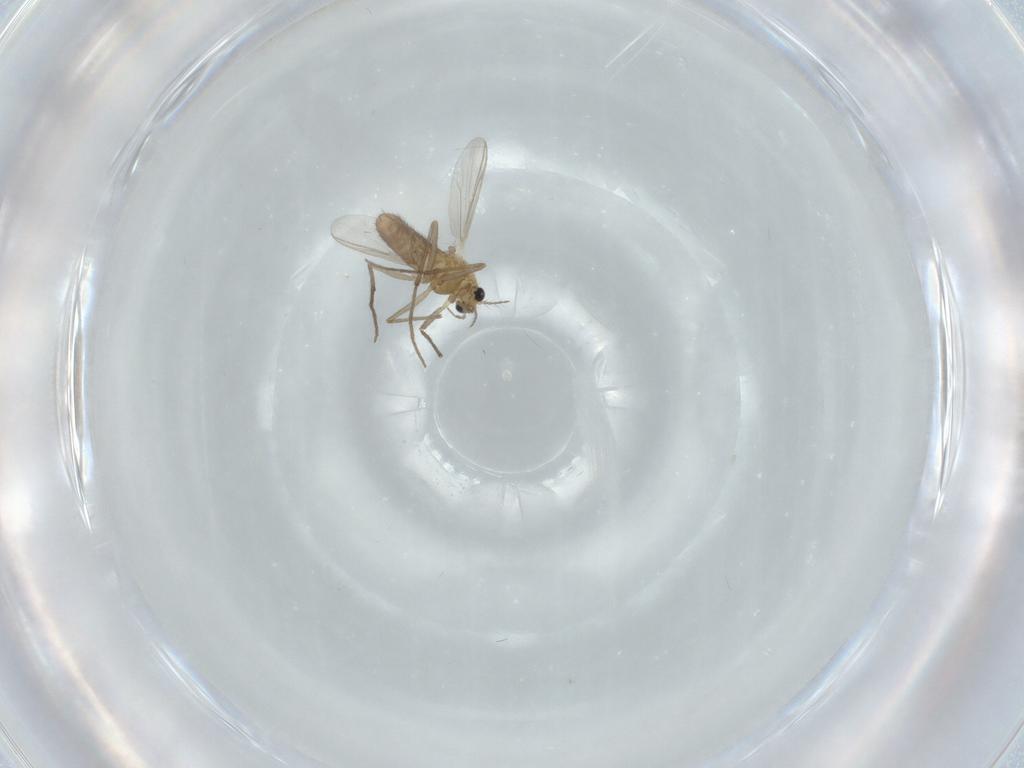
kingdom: Animalia
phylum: Arthropoda
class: Insecta
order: Diptera
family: Chironomidae
